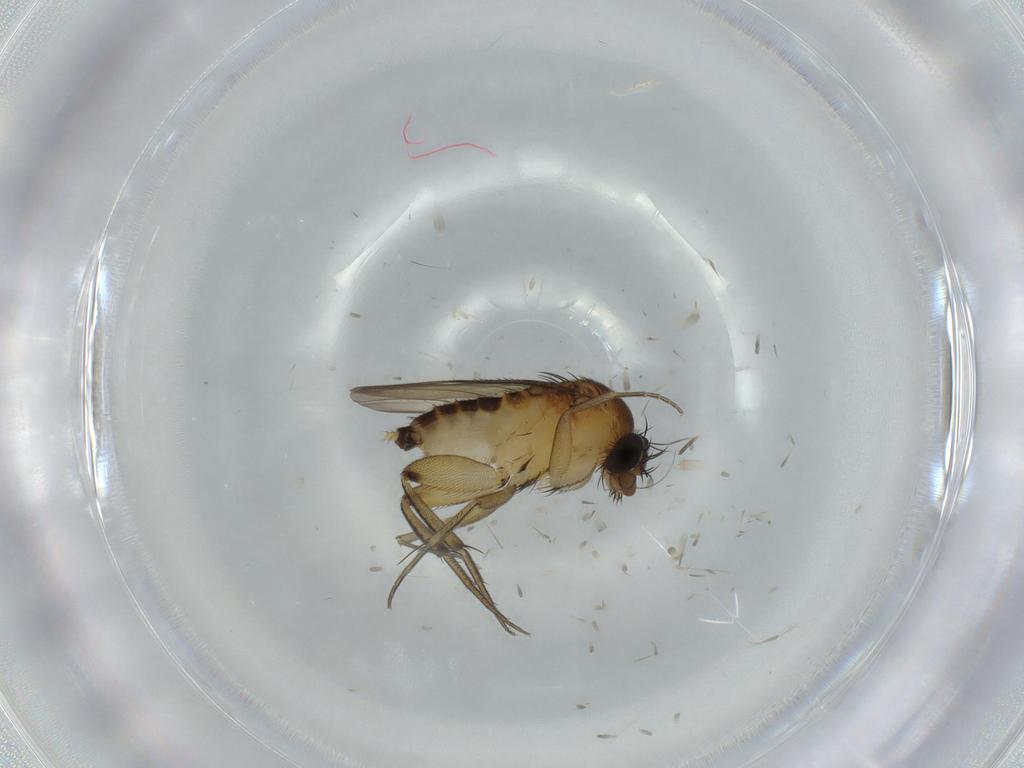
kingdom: Animalia
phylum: Arthropoda
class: Insecta
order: Diptera
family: Phoridae
